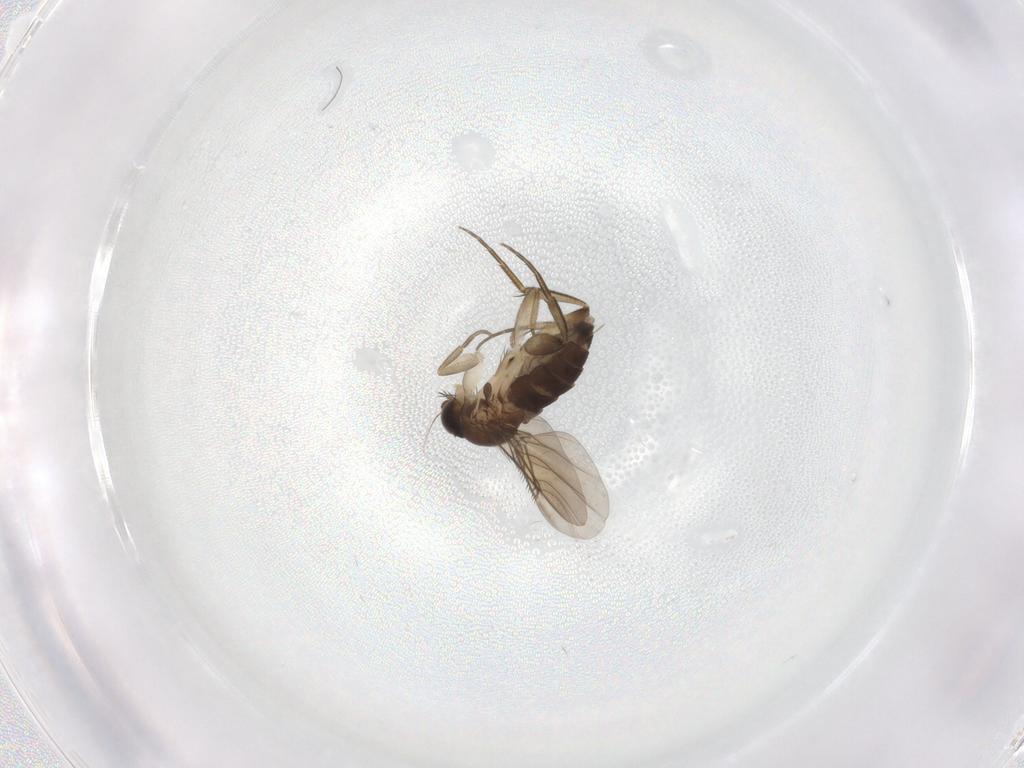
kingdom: Animalia
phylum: Arthropoda
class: Insecta
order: Diptera
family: Phoridae
